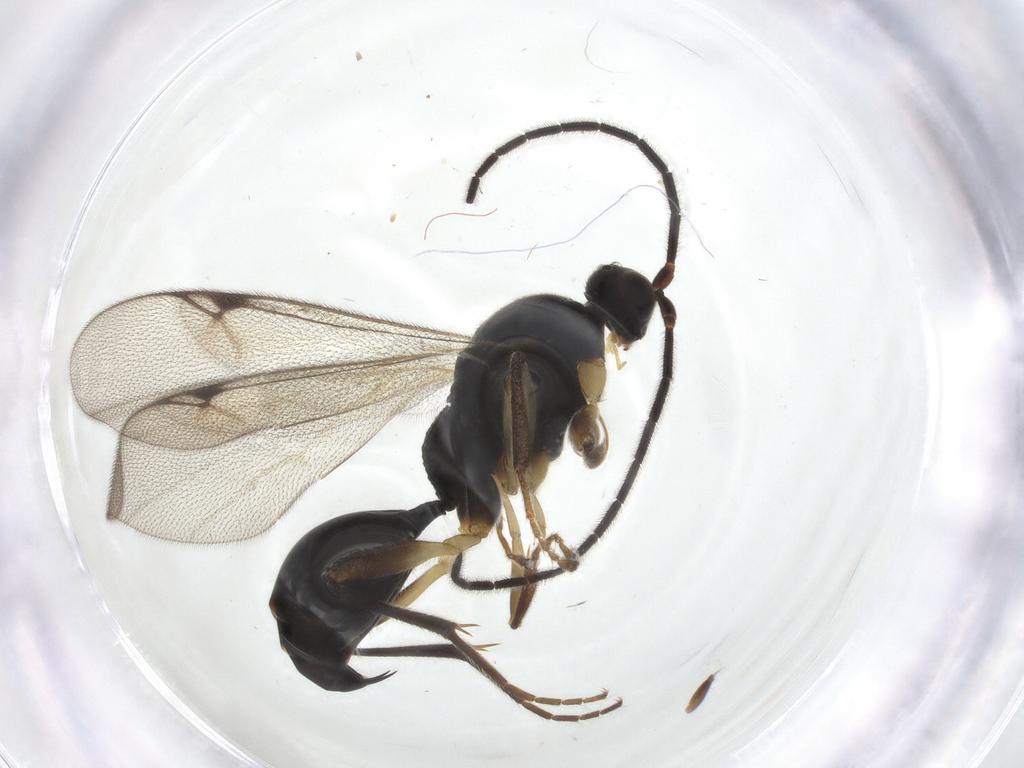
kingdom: Animalia
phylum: Arthropoda
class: Insecta
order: Hymenoptera
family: Proctotrupidae
